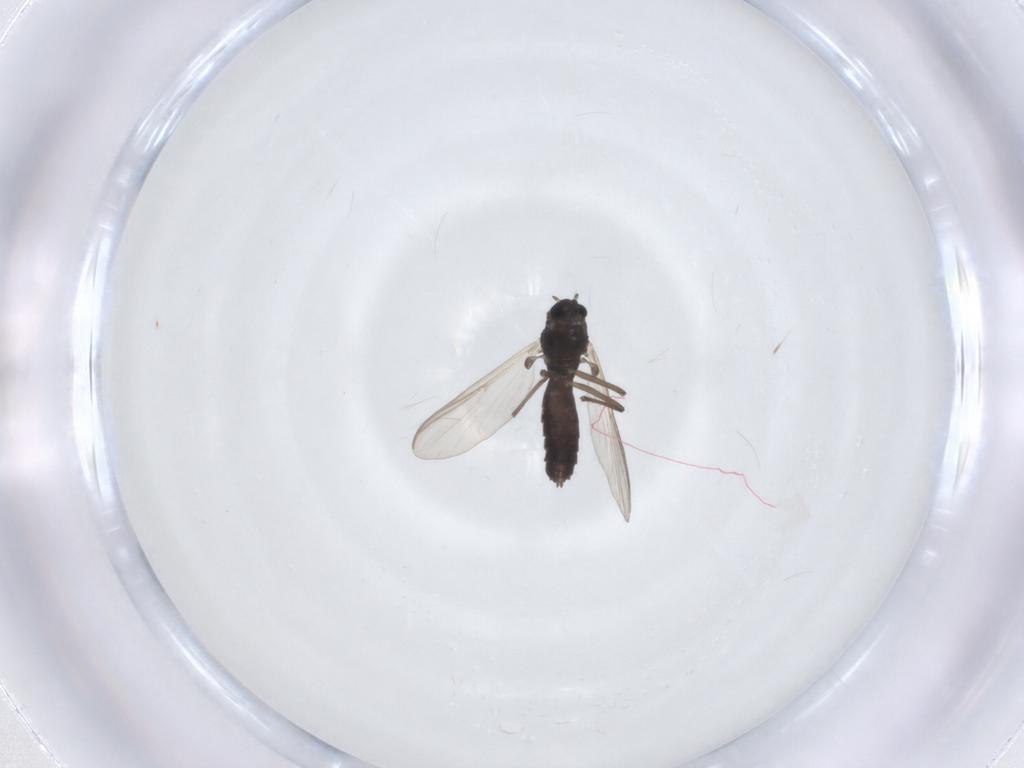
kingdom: Animalia
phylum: Arthropoda
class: Insecta
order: Diptera
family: Chironomidae
